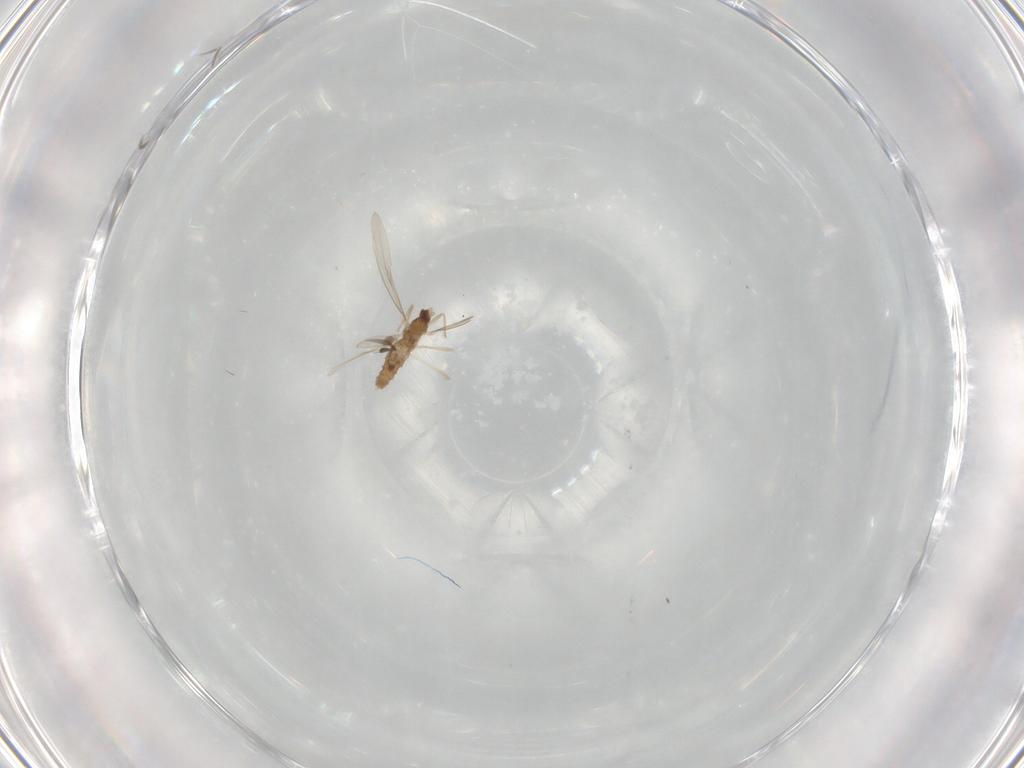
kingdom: Animalia
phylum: Arthropoda
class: Insecta
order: Diptera
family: Cecidomyiidae
